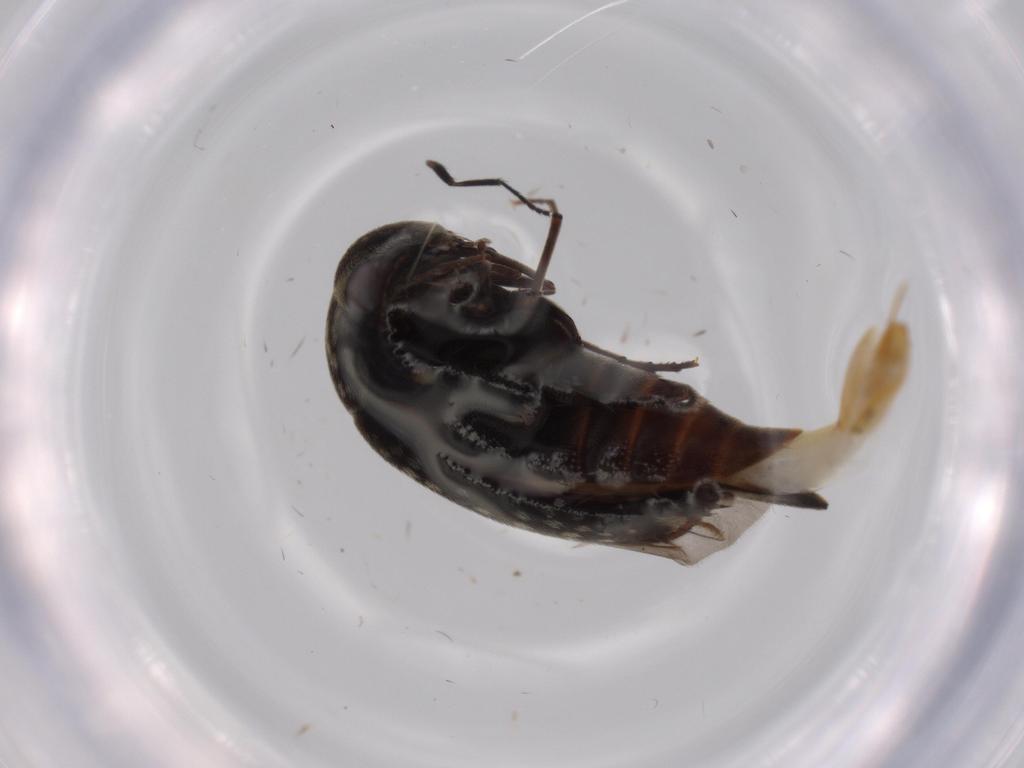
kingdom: Animalia
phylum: Arthropoda
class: Insecta
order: Coleoptera
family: Mordellidae
